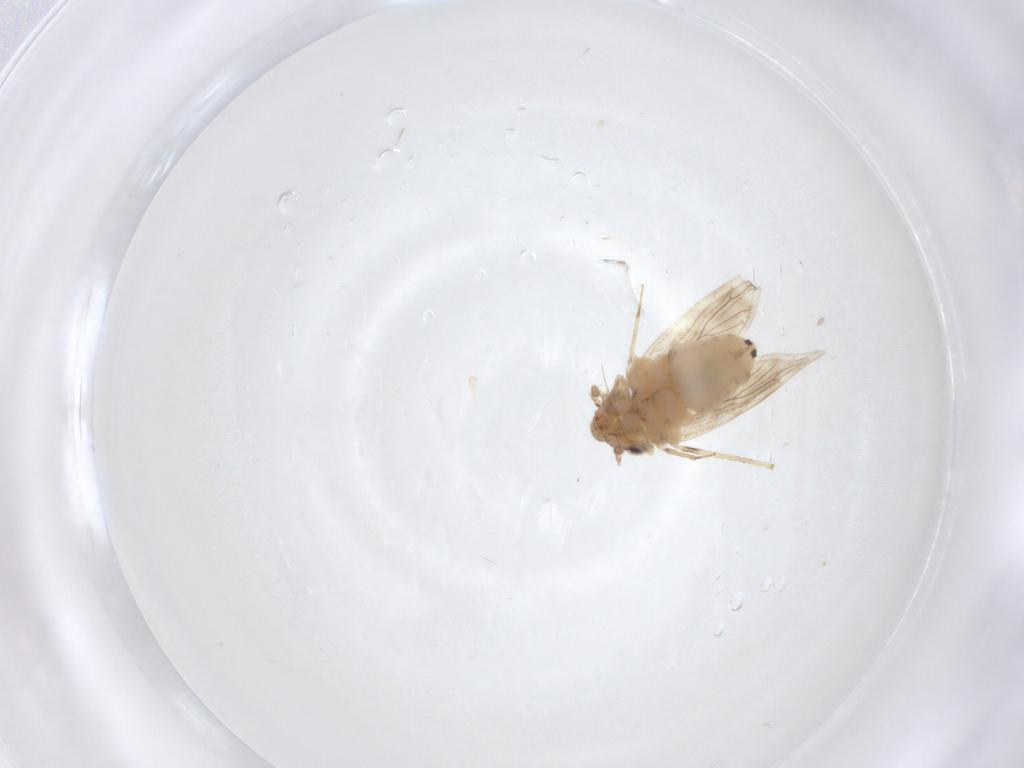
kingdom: Animalia
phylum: Arthropoda
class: Insecta
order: Psocodea
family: Lepidopsocidae
